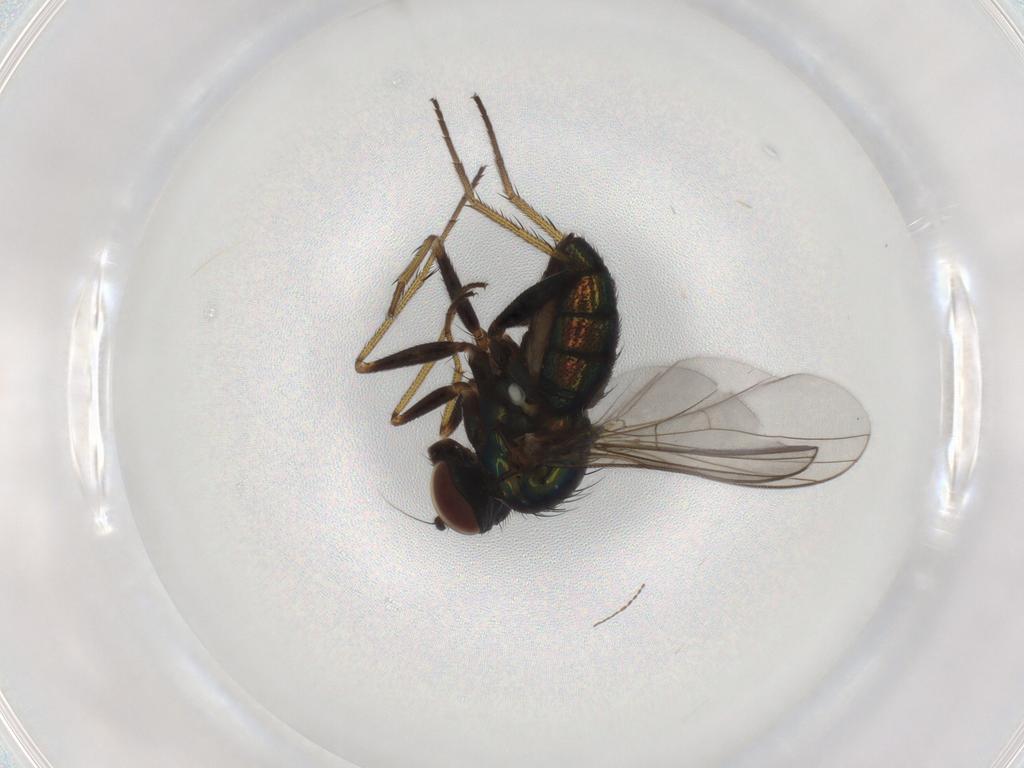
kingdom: Animalia
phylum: Arthropoda
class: Insecta
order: Diptera
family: Dolichopodidae
